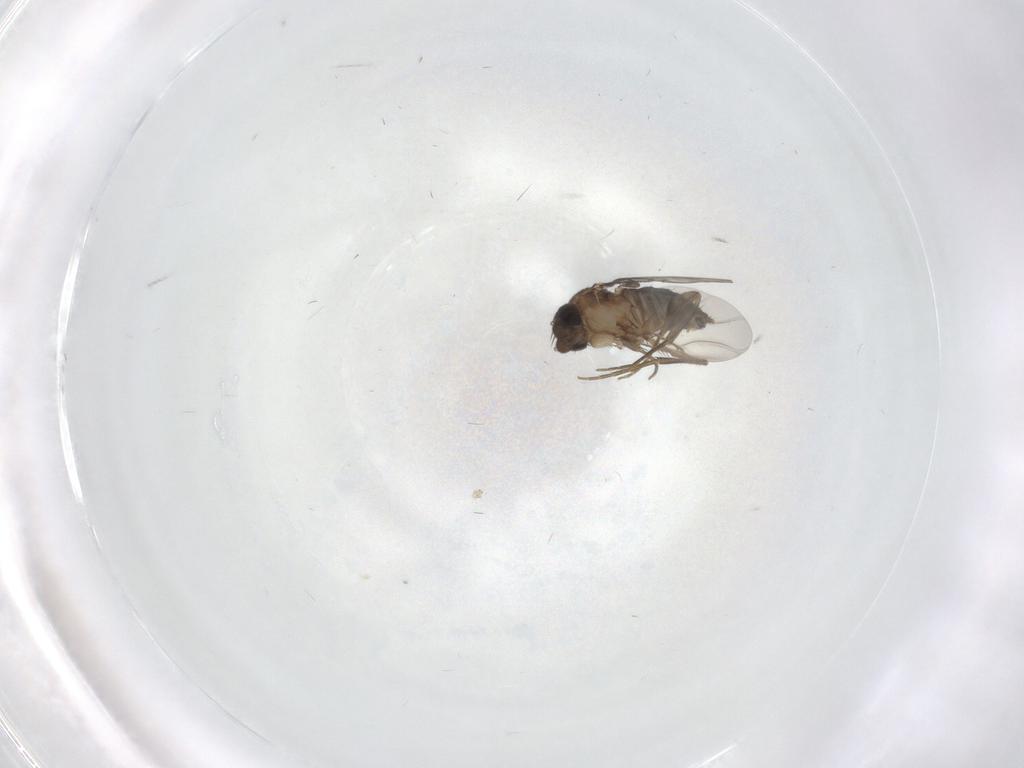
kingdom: Animalia
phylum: Arthropoda
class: Insecta
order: Diptera
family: Phoridae
